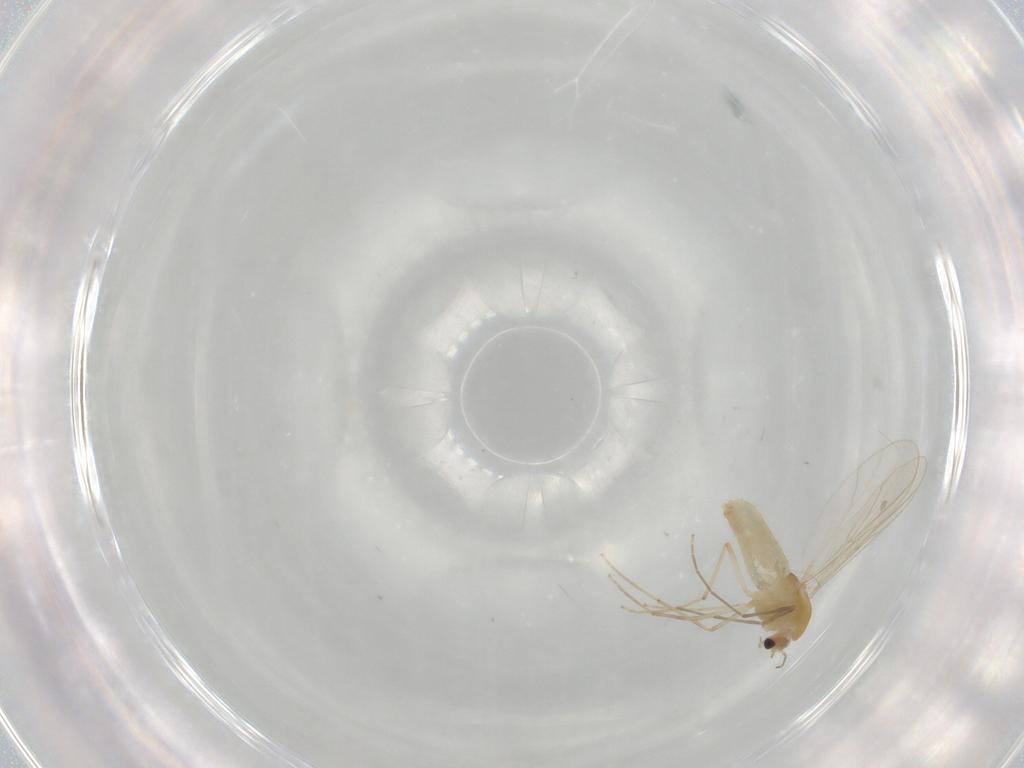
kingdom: Animalia
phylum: Arthropoda
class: Insecta
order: Diptera
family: Chironomidae
